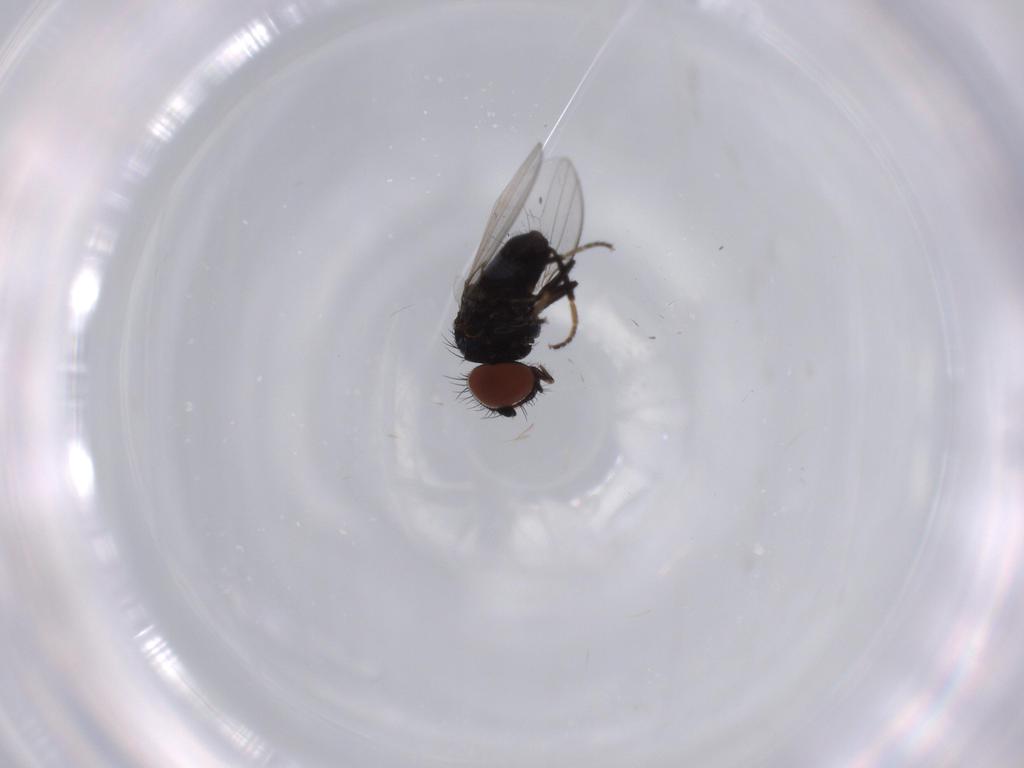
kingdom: Animalia
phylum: Arthropoda
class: Insecta
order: Diptera
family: Milichiidae
